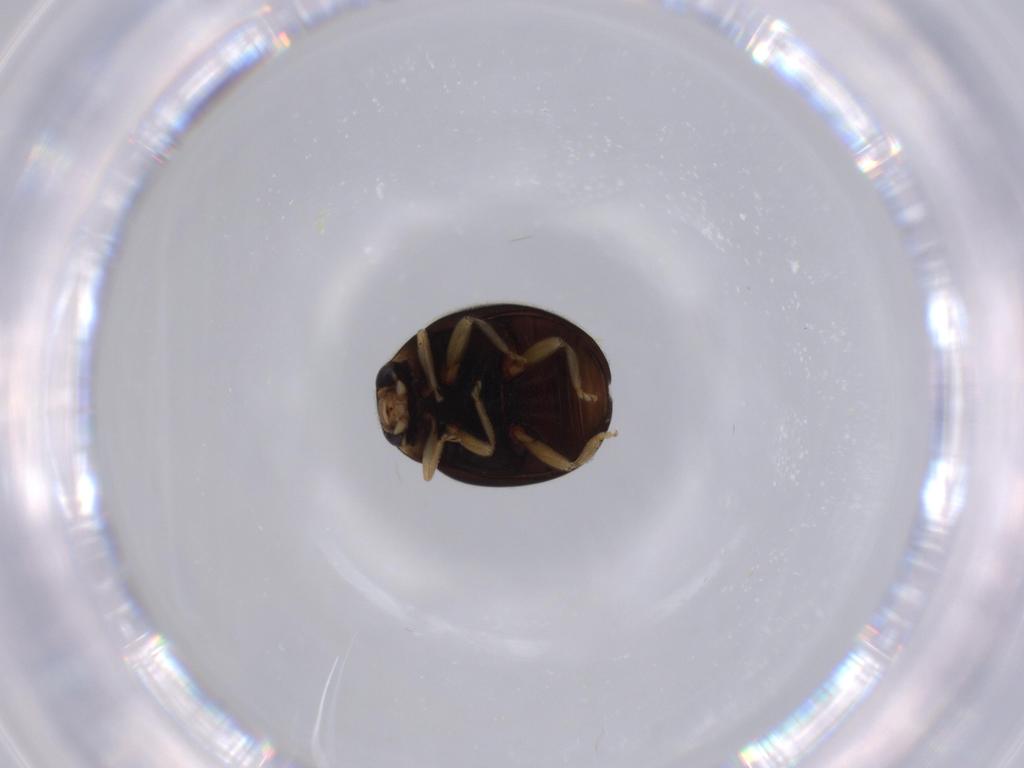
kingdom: Animalia
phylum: Arthropoda
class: Insecta
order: Coleoptera
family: Coccinellidae
